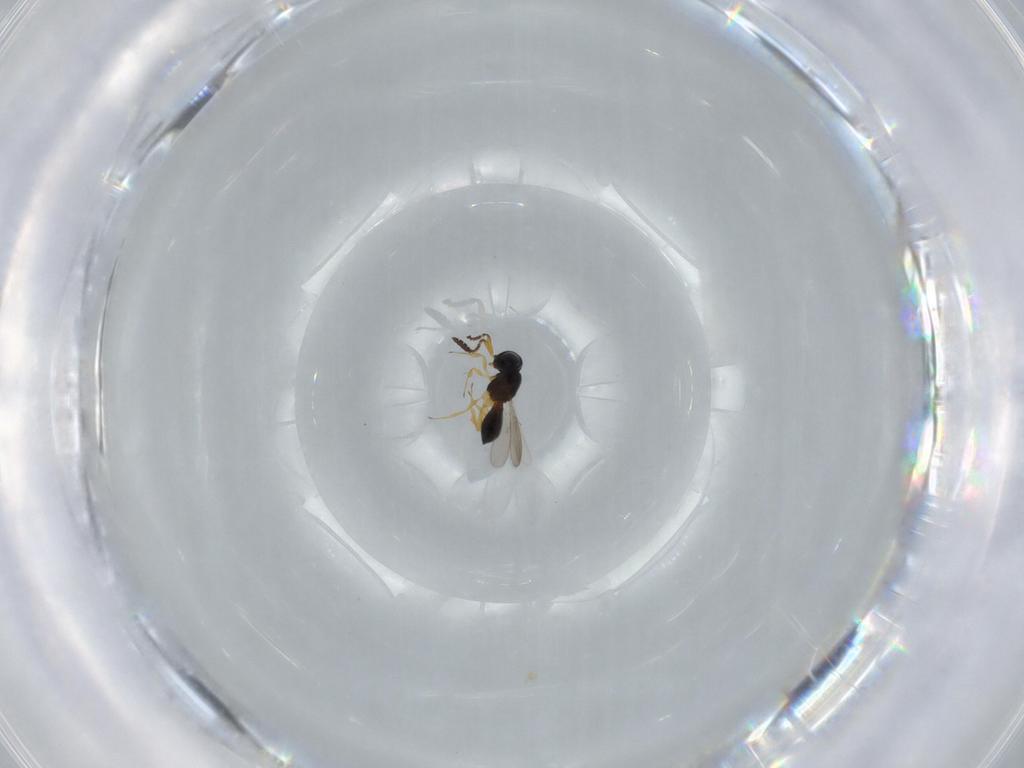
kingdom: Animalia
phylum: Arthropoda
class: Insecta
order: Hymenoptera
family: Scelionidae
